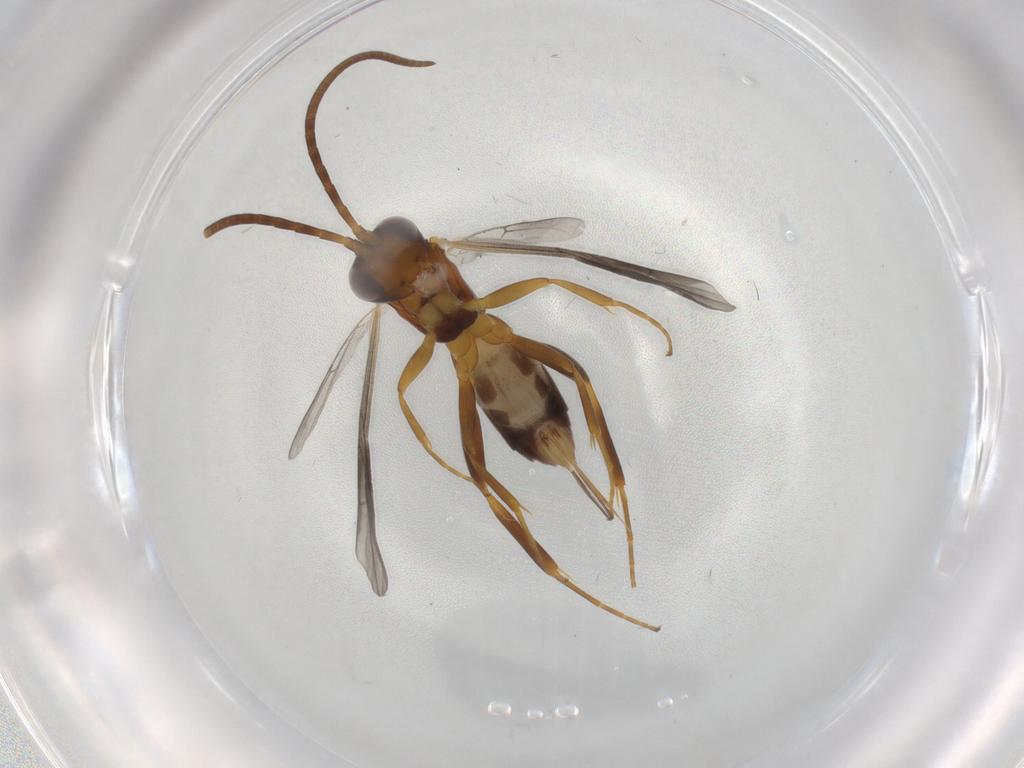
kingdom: Animalia
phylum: Arthropoda
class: Insecta
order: Hymenoptera
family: Ichneumonidae
